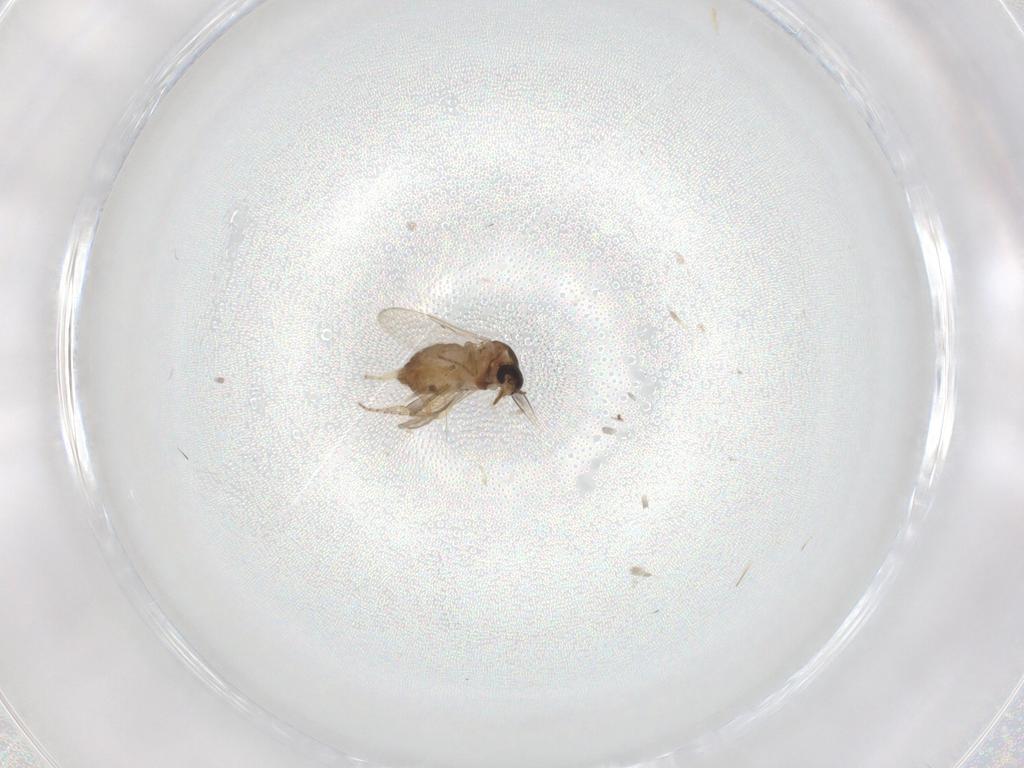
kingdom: Animalia
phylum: Arthropoda
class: Insecta
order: Diptera
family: Ceratopogonidae
